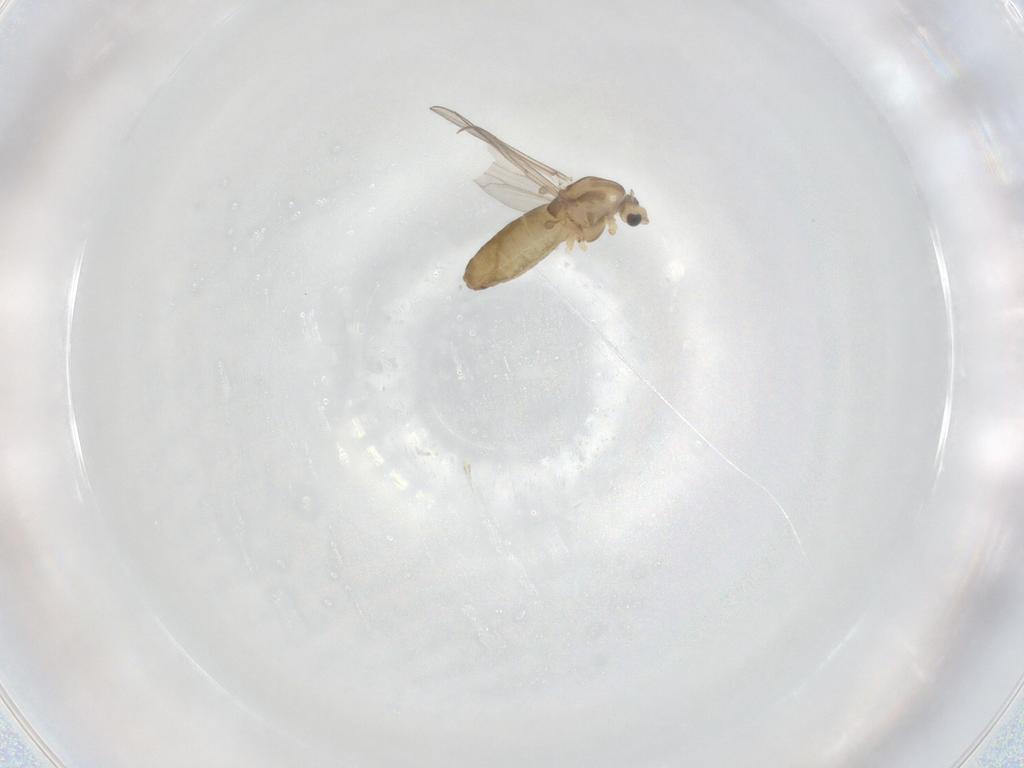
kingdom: Animalia
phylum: Arthropoda
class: Insecta
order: Diptera
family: Chironomidae
